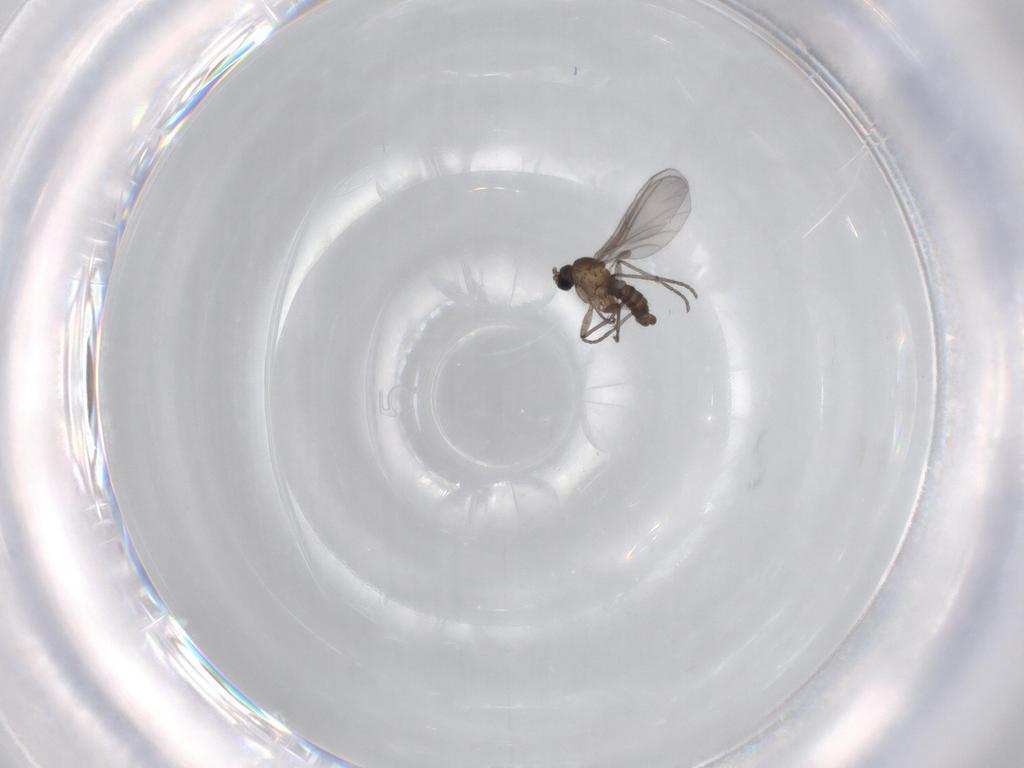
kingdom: Animalia
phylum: Arthropoda
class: Insecta
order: Diptera
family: Sciaridae
